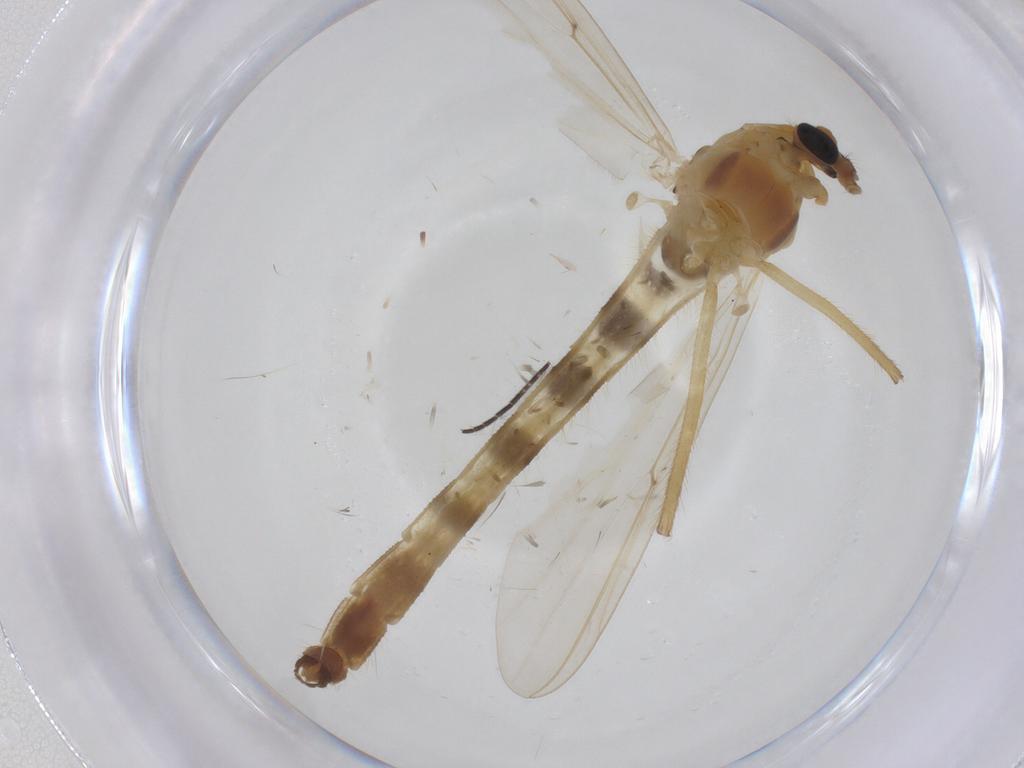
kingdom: Animalia
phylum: Arthropoda
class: Insecta
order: Diptera
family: Chironomidae
